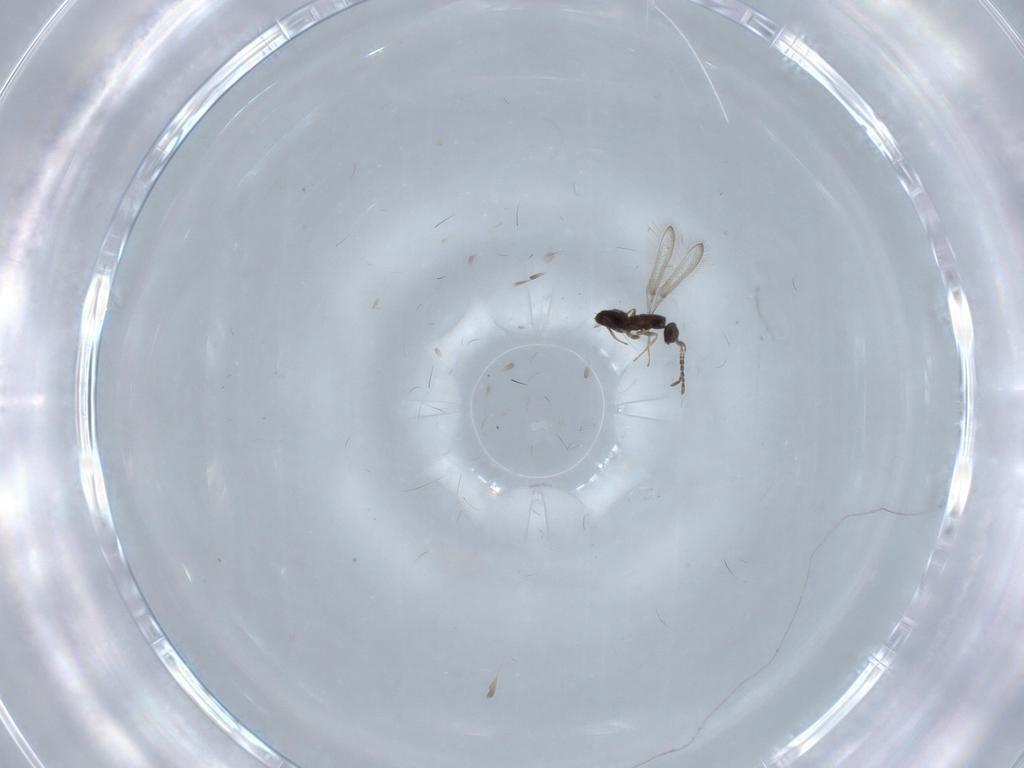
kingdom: Animalia
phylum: Arthropoda
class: Insecta
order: Hymenoptera
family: Mymaridae
